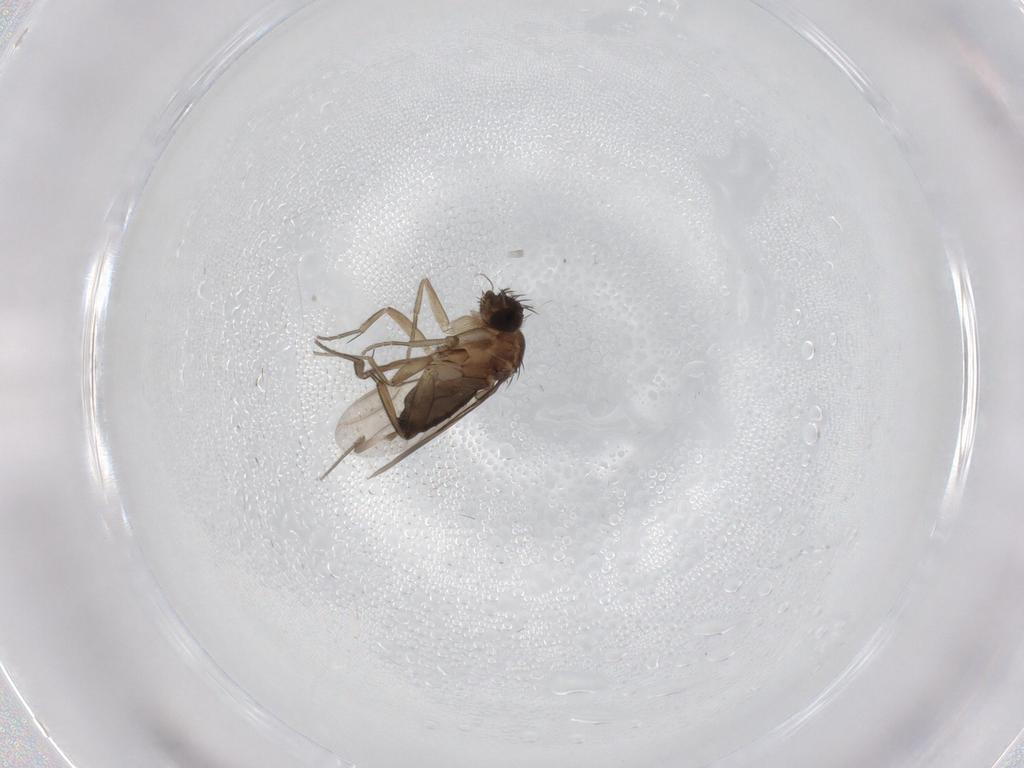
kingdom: Animalia
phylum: Arthropoda
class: Insecta
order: Diptera
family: Phoridae
